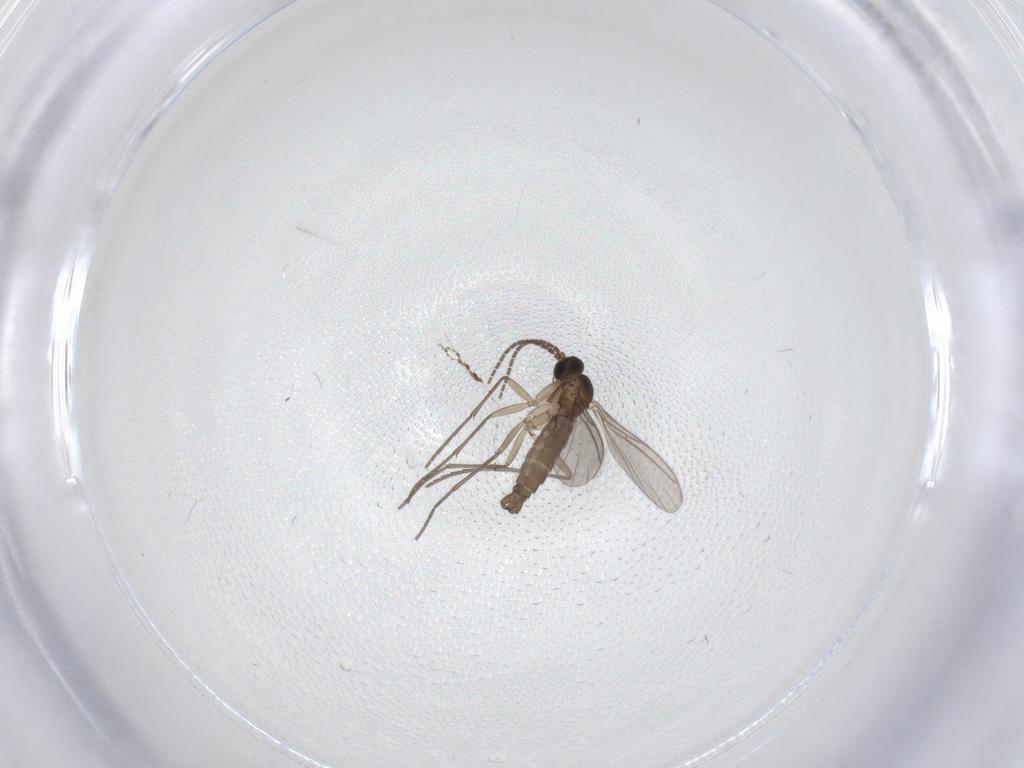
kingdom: Animalia
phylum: Arthropoda
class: Insecta
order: Diptera
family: Sciaridae
